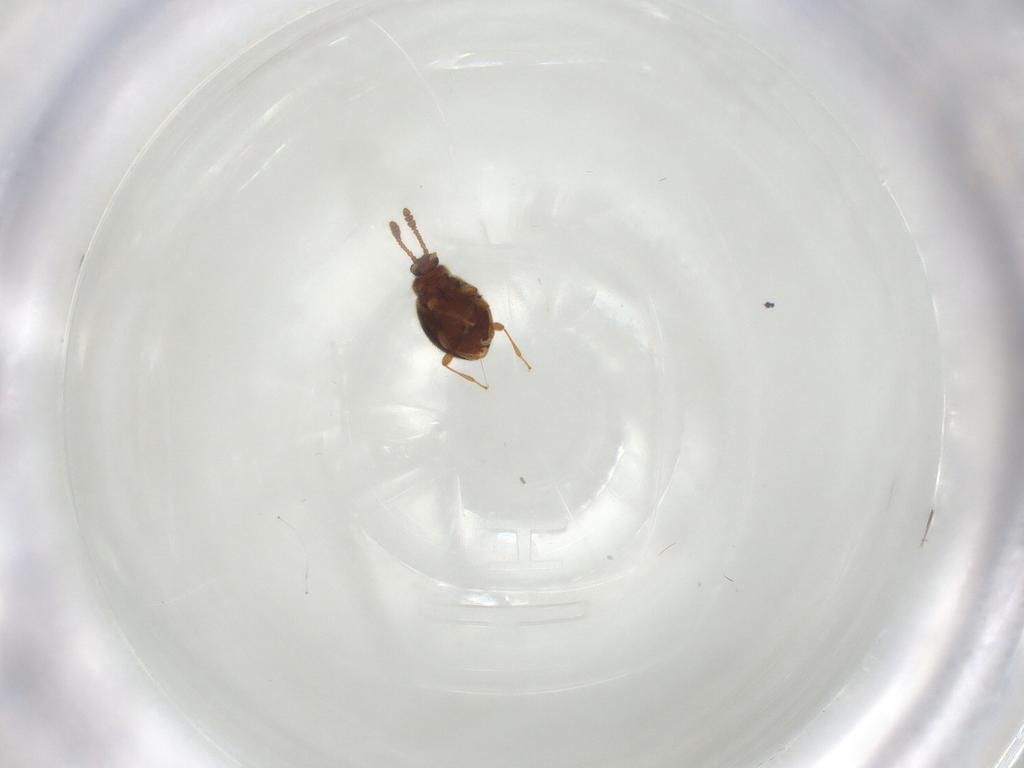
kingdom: Animalia
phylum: Arthropoda
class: Insecta
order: Coleoptera
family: Staphylinidae
